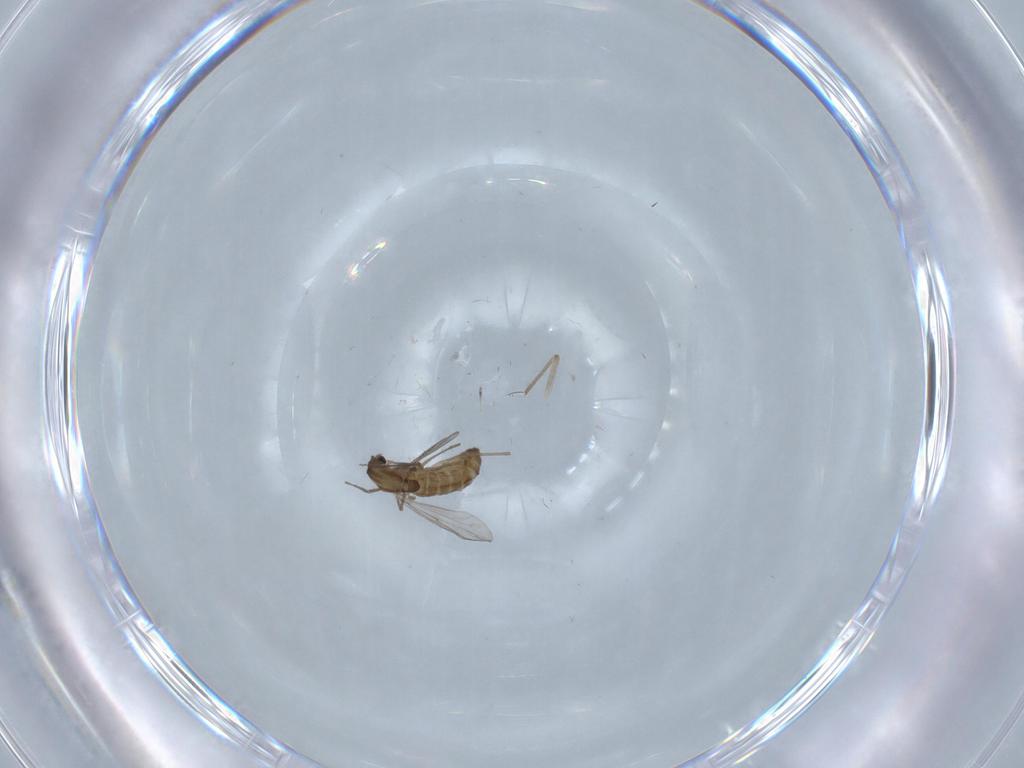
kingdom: Animalia
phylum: Arthropoda
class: Insecta
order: Diptera
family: Chironomidae
